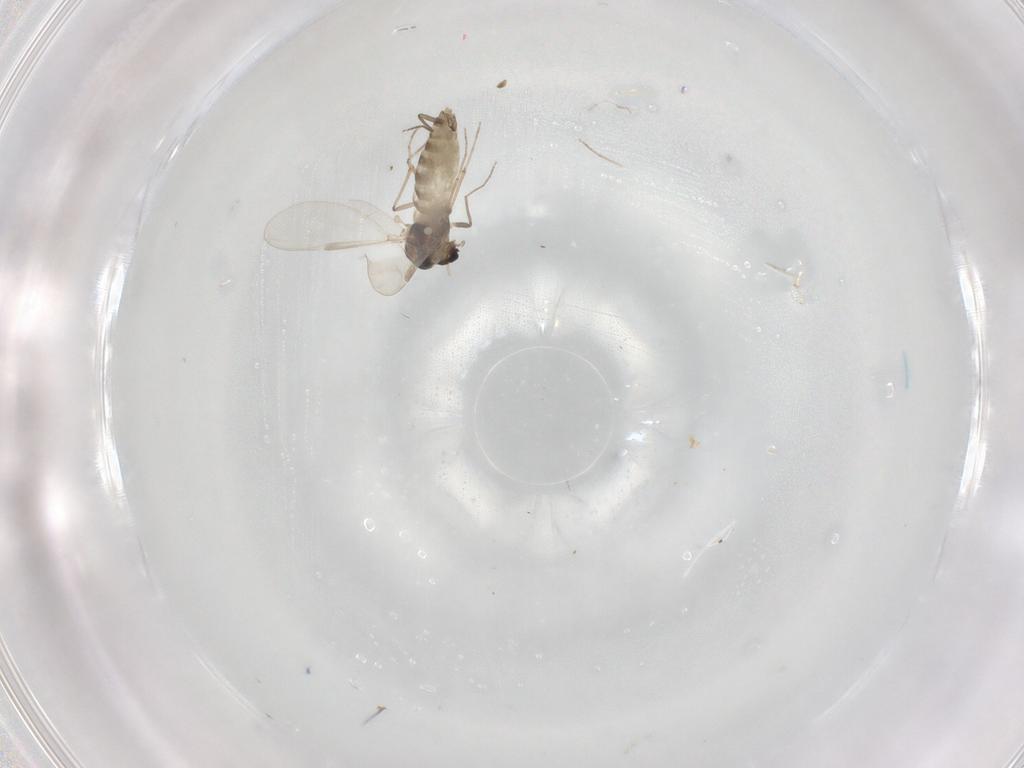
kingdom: Animalia
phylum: Arthropoda
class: Insecta
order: Diptera
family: Chironomidae
